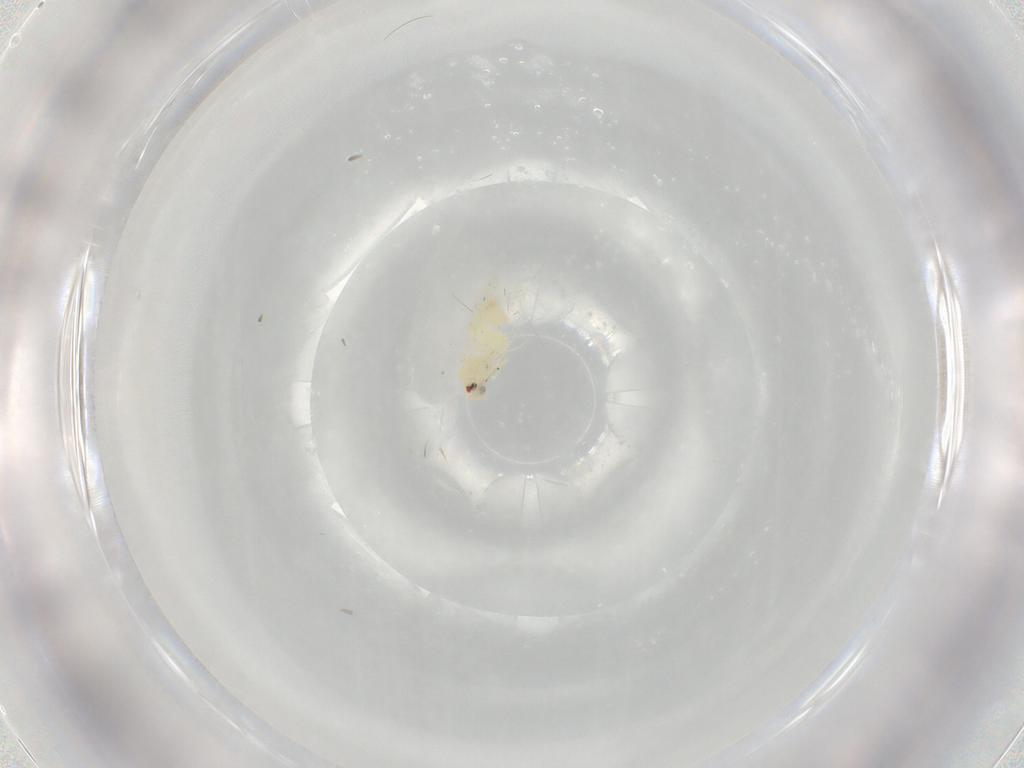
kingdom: Animalia
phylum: Arthropoda
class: Insecta
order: Hemiptera
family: Aleyrodidae
